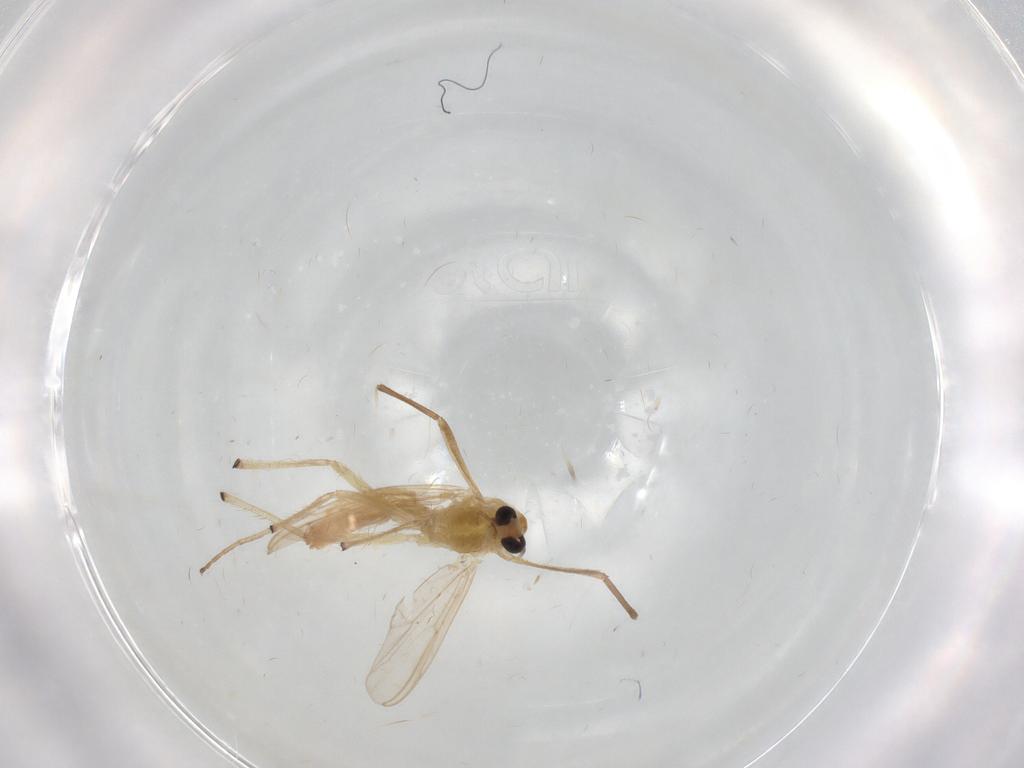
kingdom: Animalia
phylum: Arthropoda
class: Insecta
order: Diptera
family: Chironomidae
